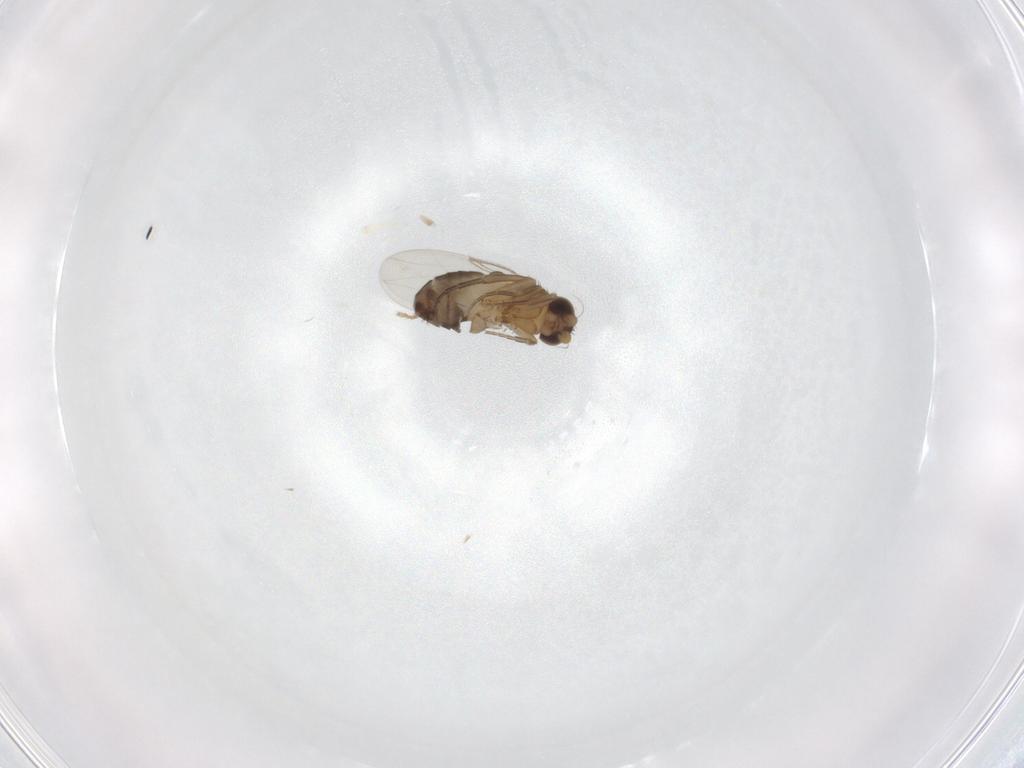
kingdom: Animalia
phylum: Arthropoda
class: Insecta
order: Diptera
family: Phoridae
